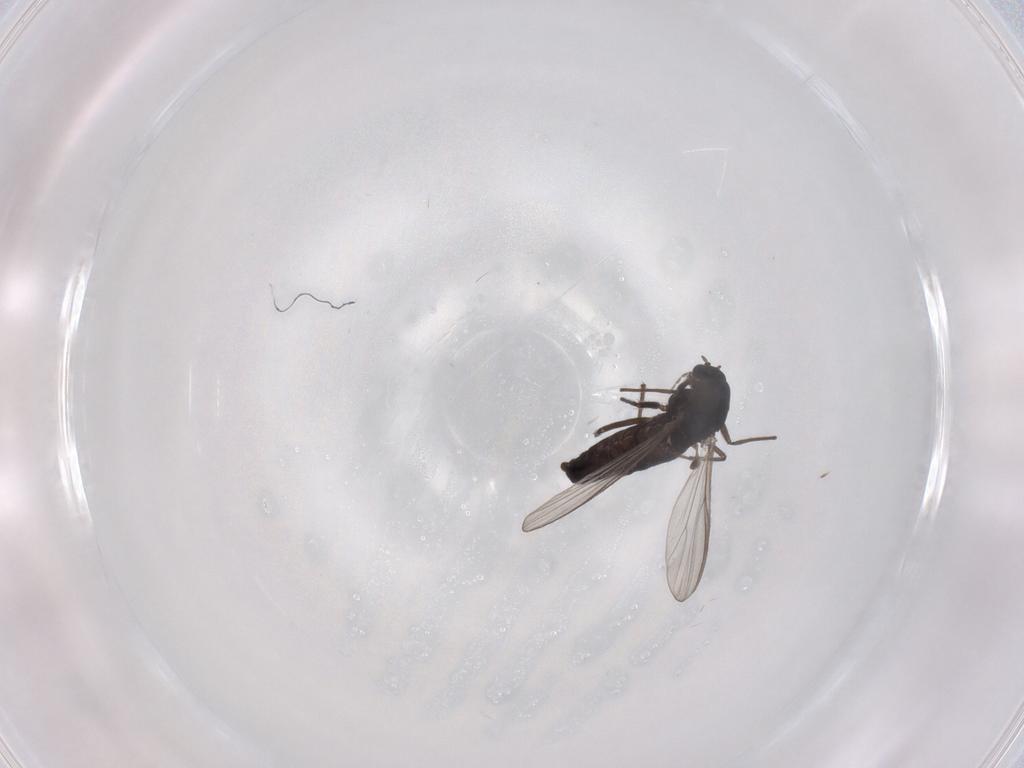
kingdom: Animalia
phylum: Arthropoda
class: Insecta
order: Diptera
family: Chironomidae
